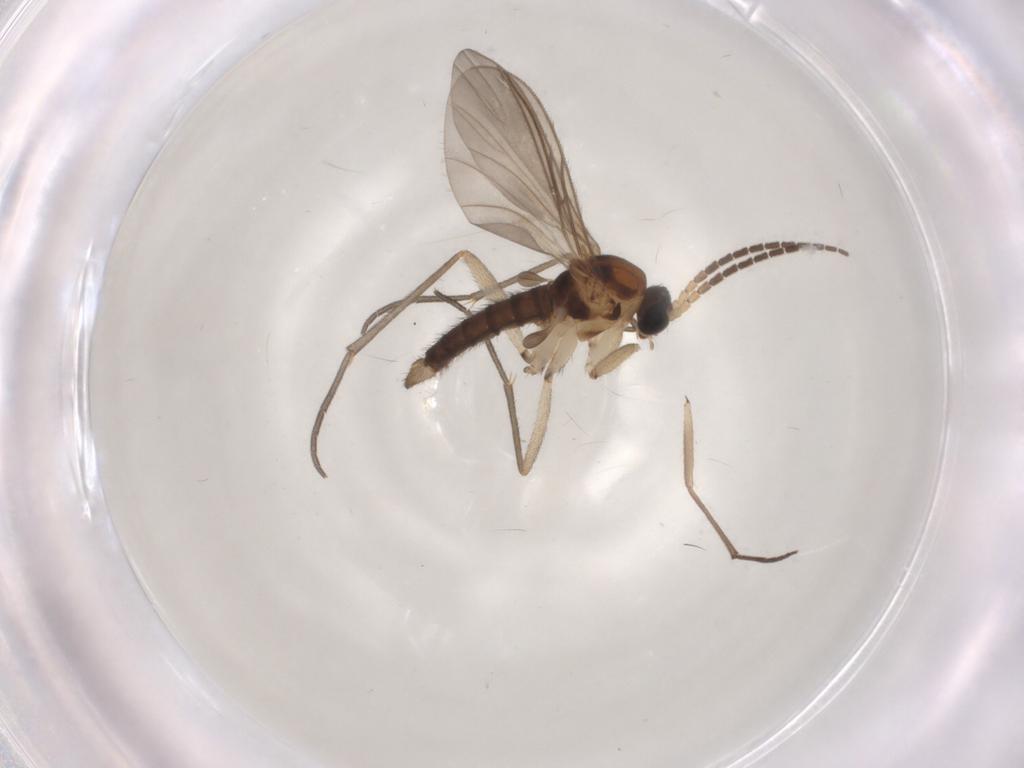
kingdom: Animalia
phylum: Arthropoda
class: Insecta
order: Diptera
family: Sciaridae
